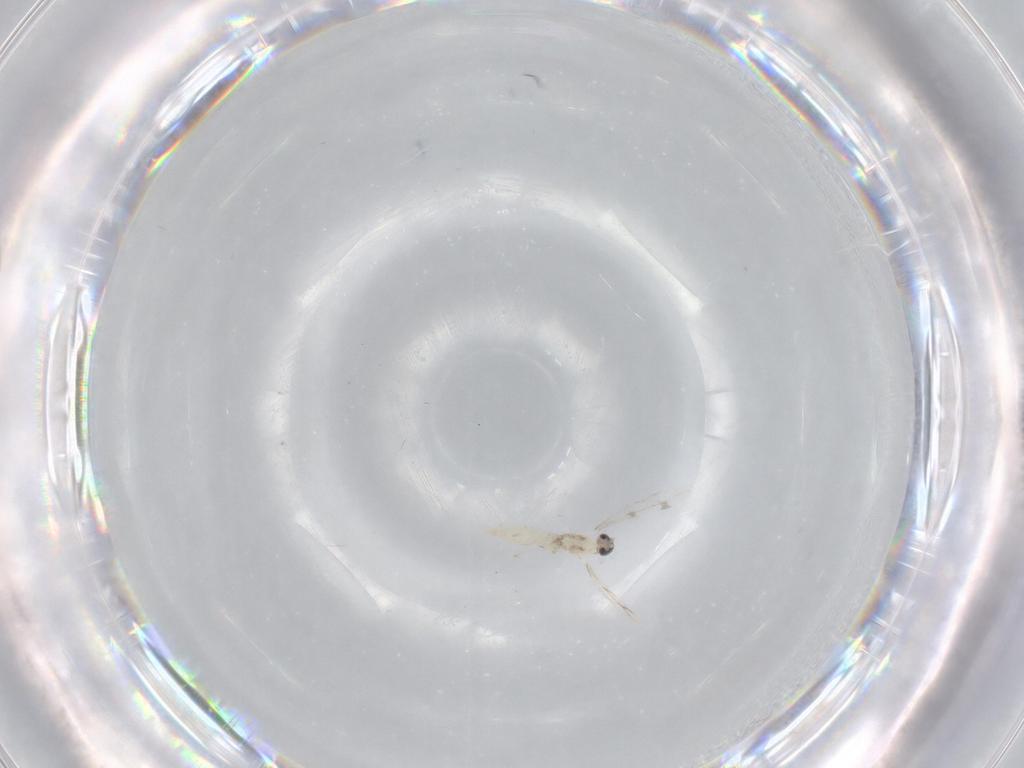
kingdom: Animalia
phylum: Arthropoda
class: Insecta
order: Diptera
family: Cecidomyiidae
